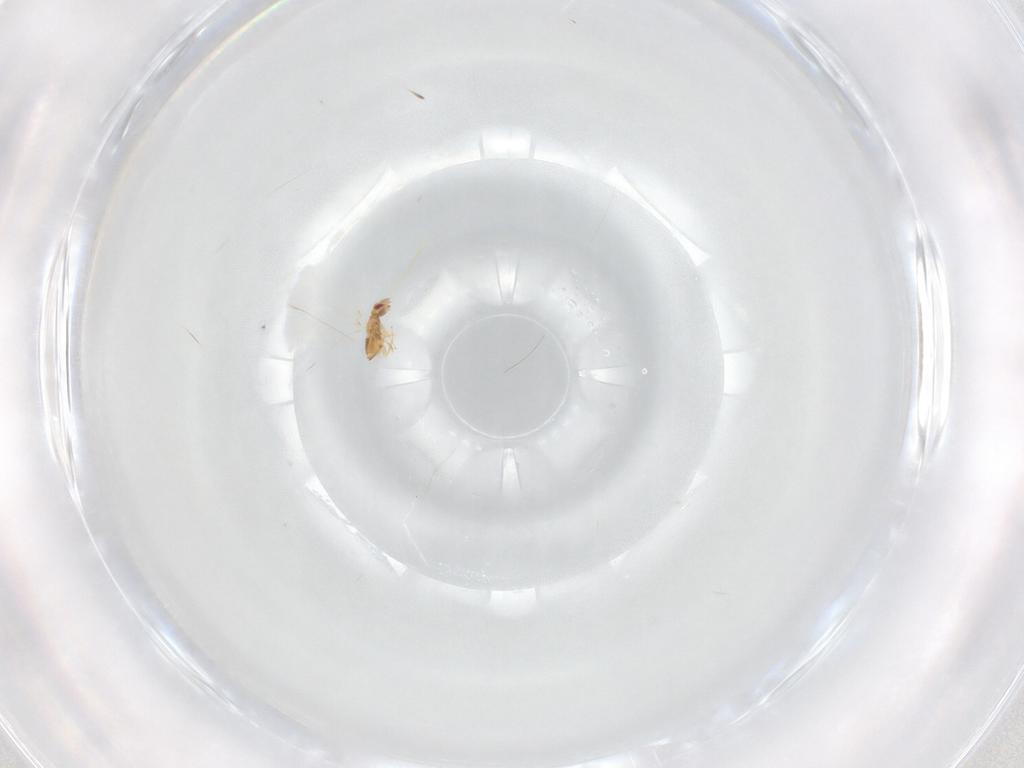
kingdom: Animalia
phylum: Arthropoda
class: Insecta
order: Hymenoptera
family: Trichogrammatidae
